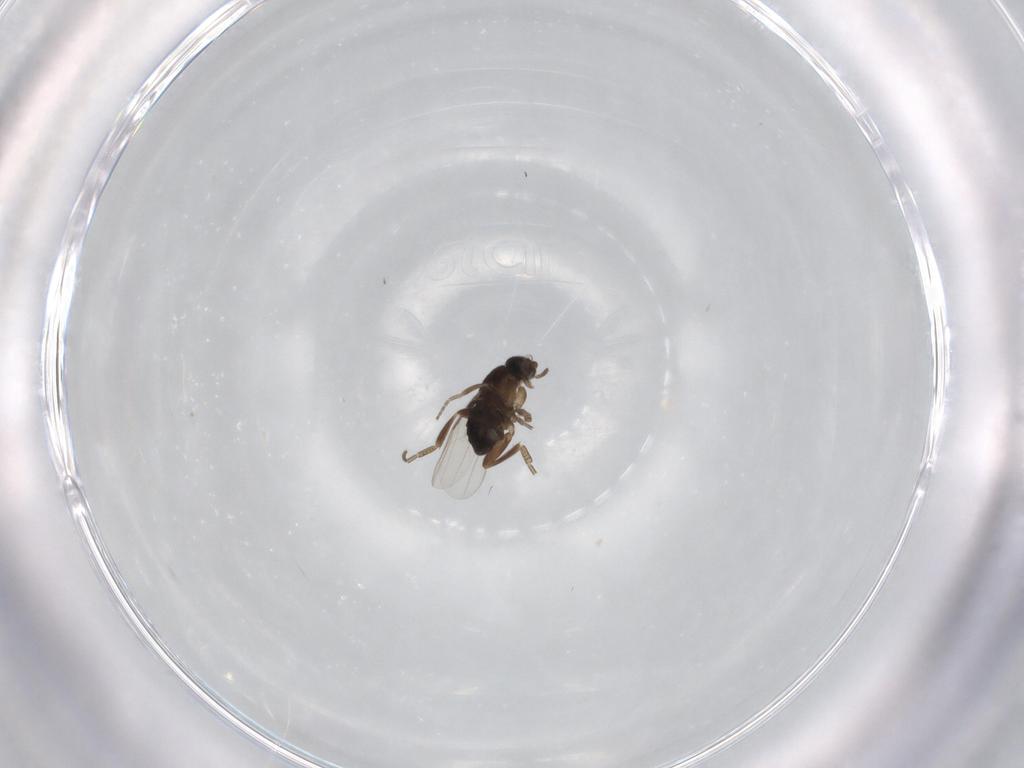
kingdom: Animalia
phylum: Arthropoda
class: Insecta
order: Diptera
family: Phoridae
